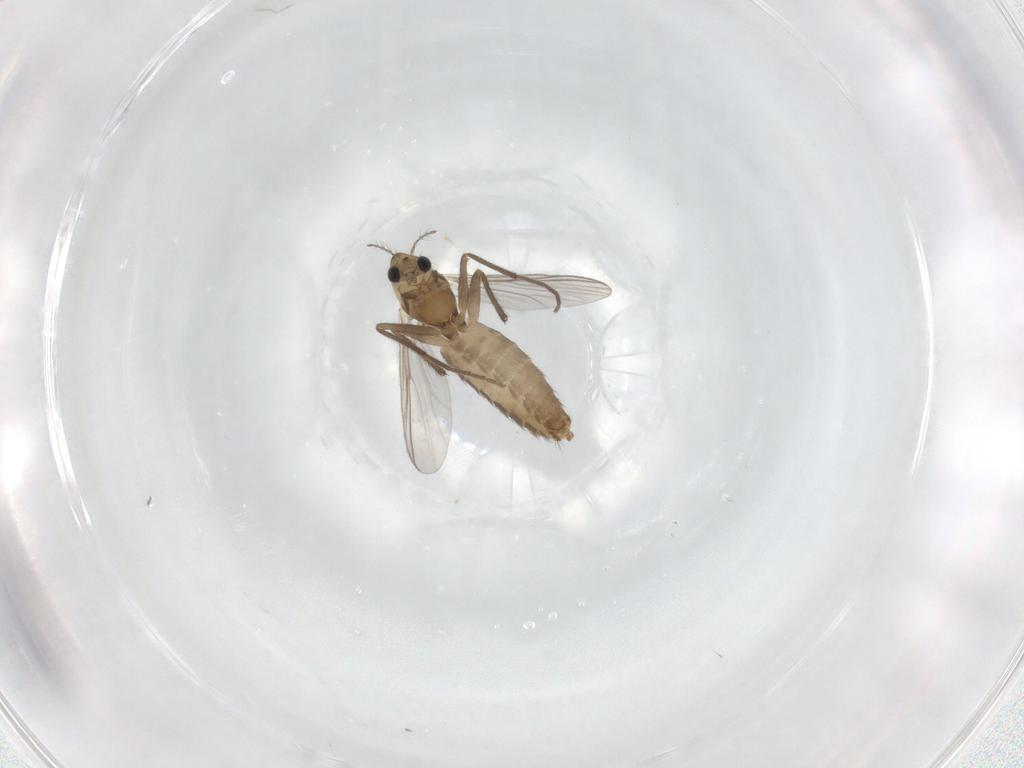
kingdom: Animalia
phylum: Arthropoda
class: Insecta
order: Diptera
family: Chironomidae
